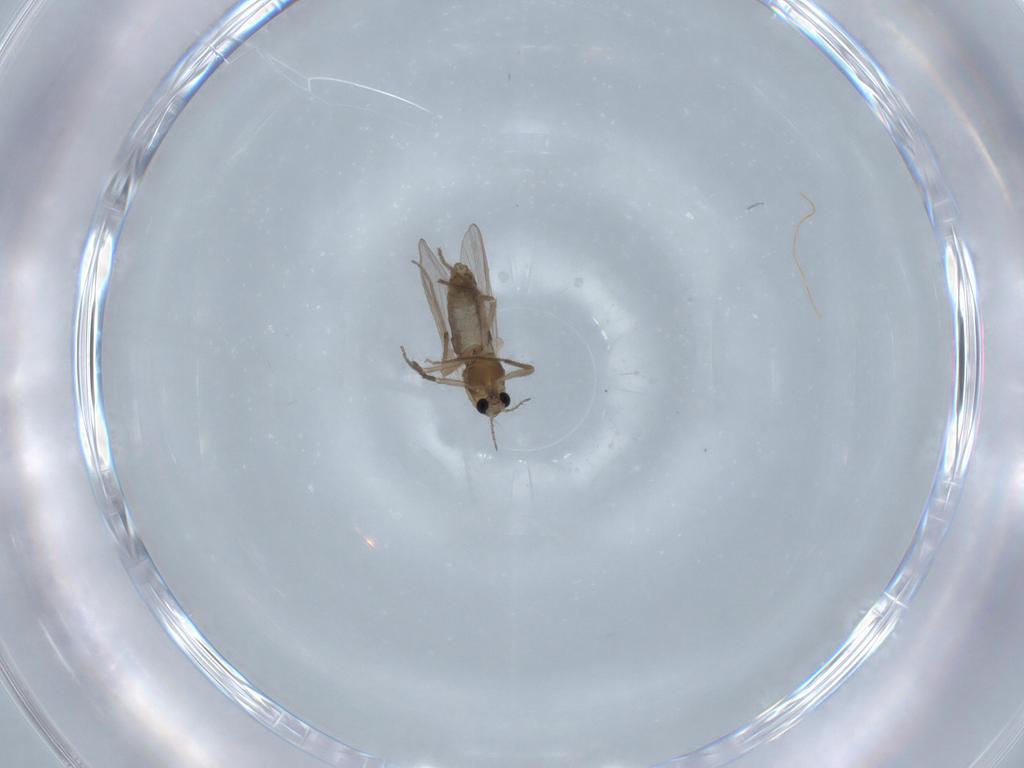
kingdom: Animalia
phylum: Arthropoda
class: Insecta
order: Diptera
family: Chironomidae
